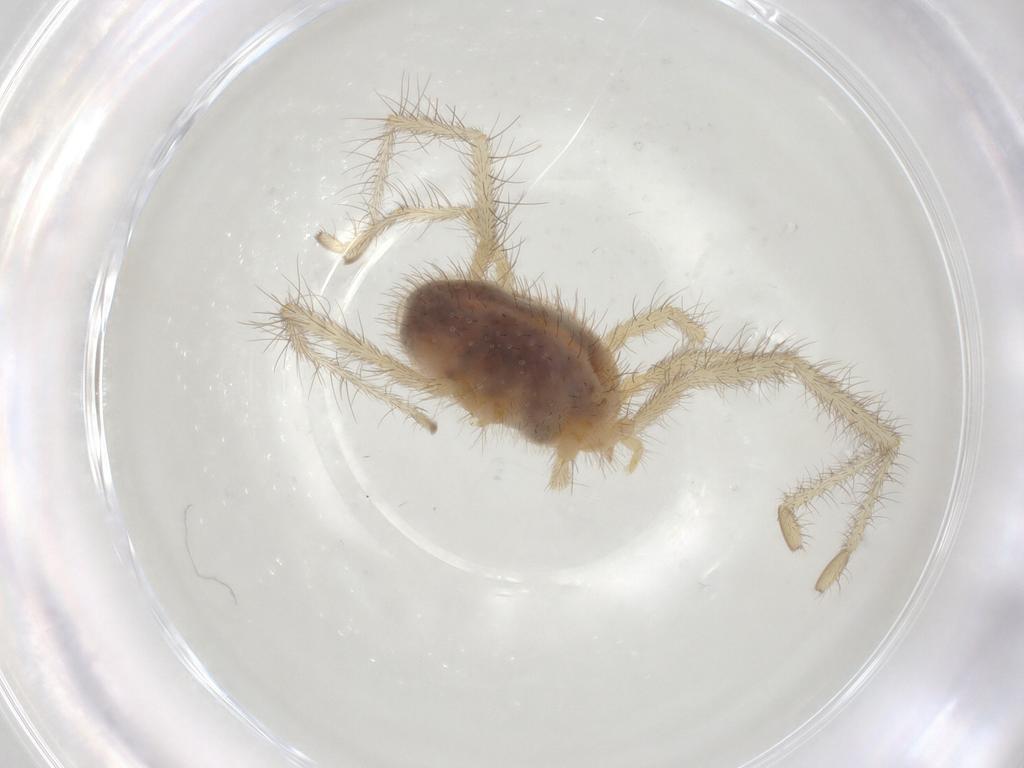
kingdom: Animalia
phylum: Arthropoda
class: Arachnida
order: Trombidiformes
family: Erythraeidae
